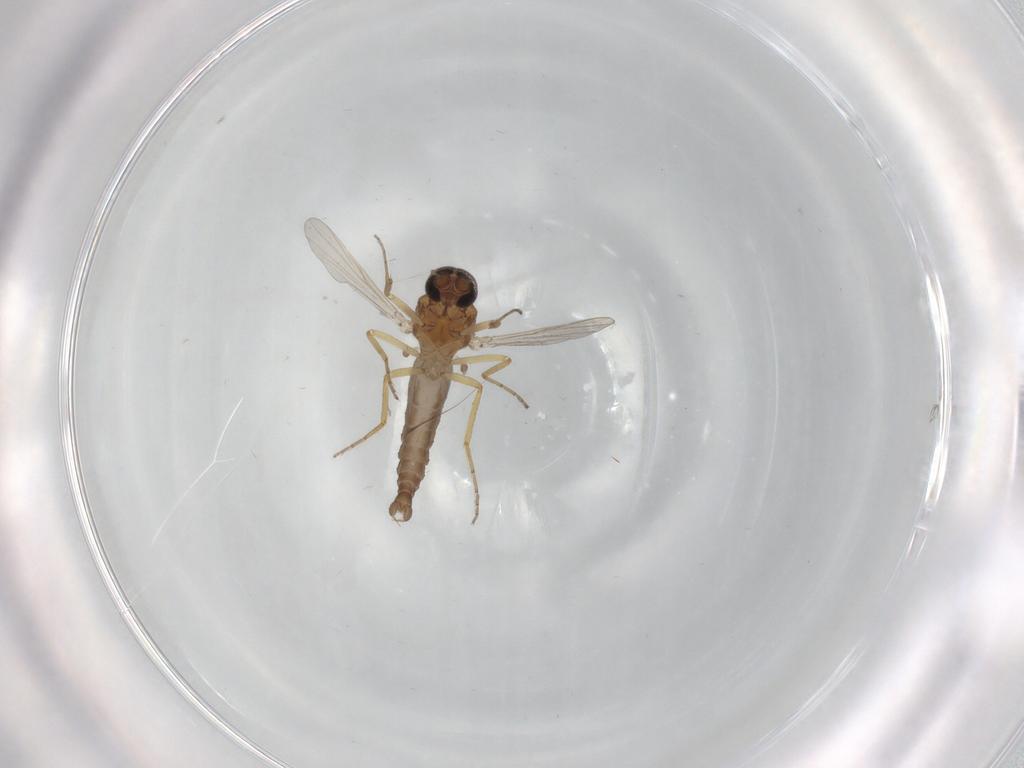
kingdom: Animalia
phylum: Arthropoda
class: Insecta
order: Diptera
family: Ceratopogonidae
